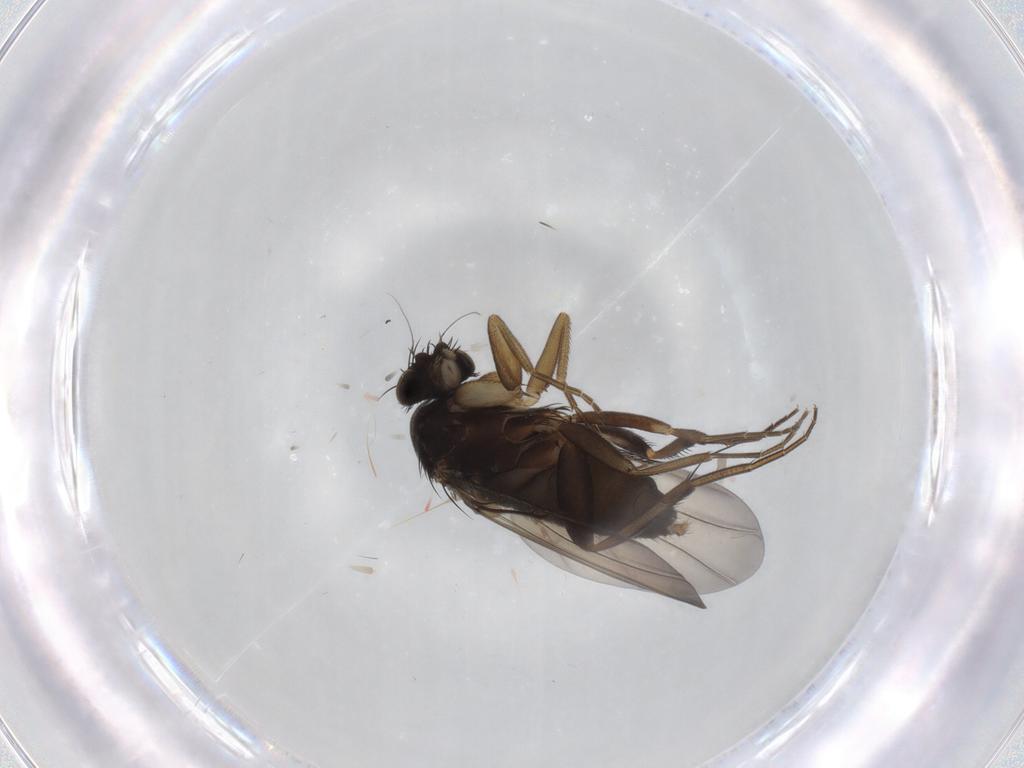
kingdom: Animalia
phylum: Arthropoda
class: Insecta
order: Diptera
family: Phoridae
